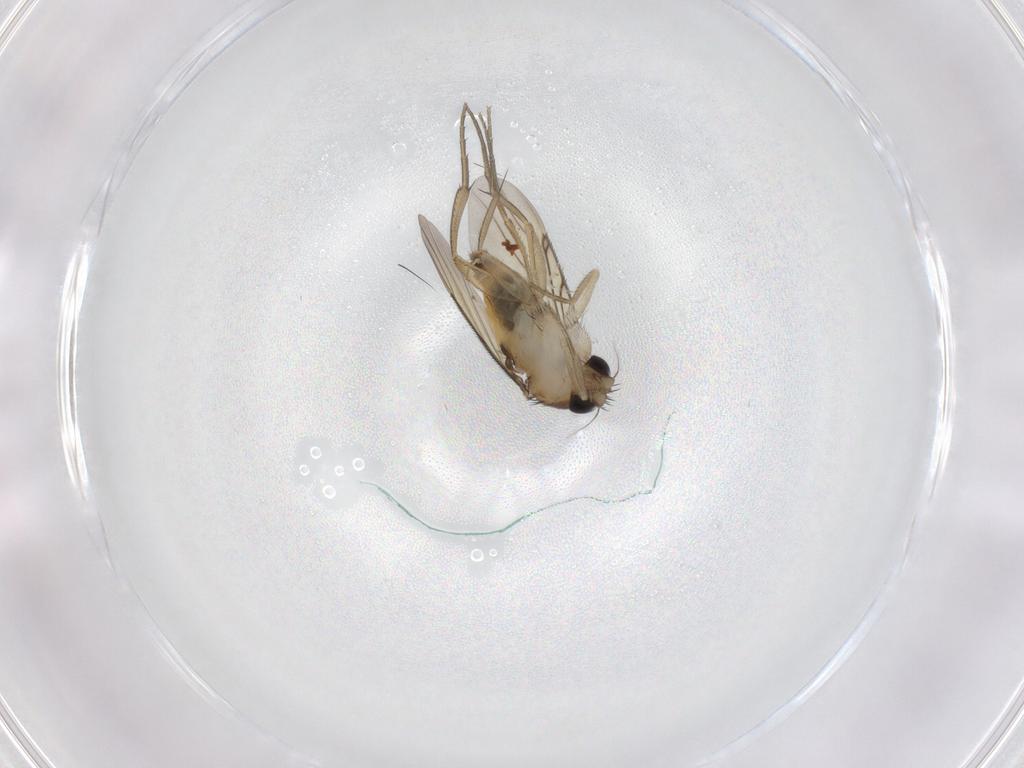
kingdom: Animalia
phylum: Arthropoda
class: Insecta
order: Diptera
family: Phoridae
